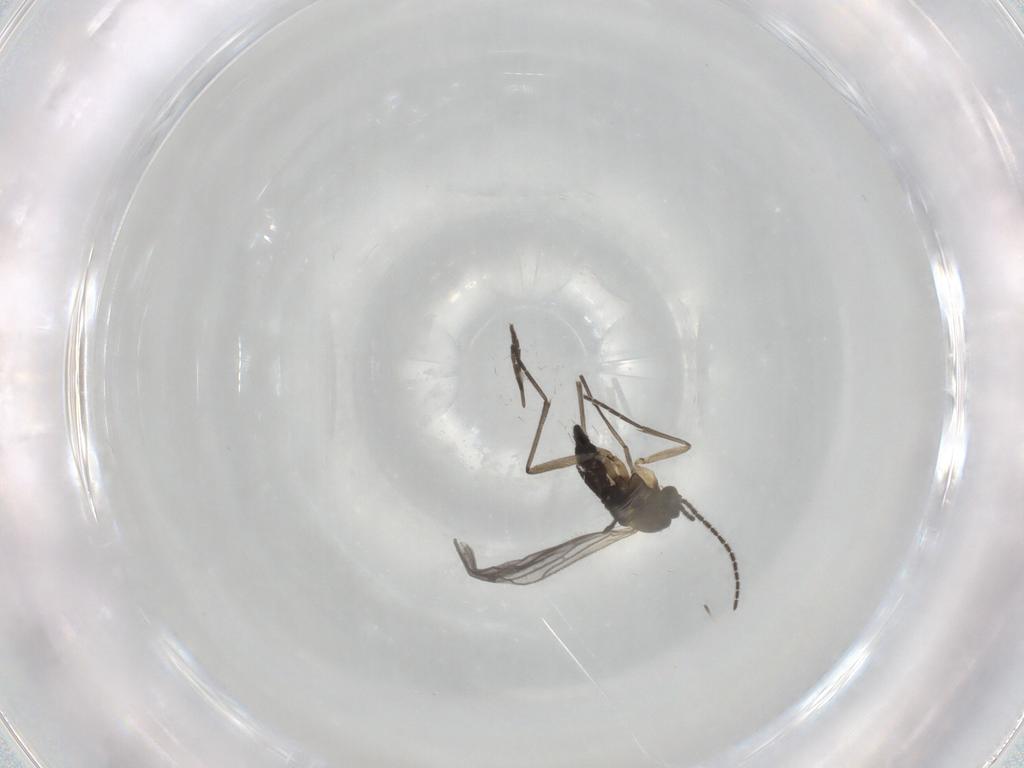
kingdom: Animalia
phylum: Arthropoda
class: Insecta
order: Diptera
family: Sciaridae
